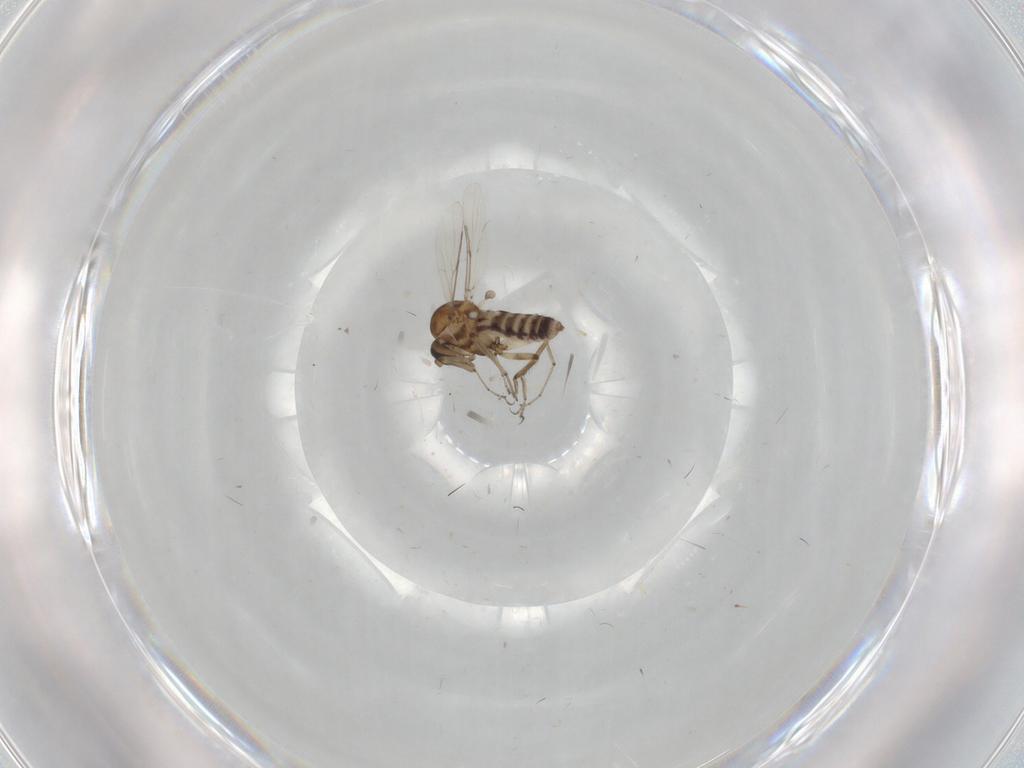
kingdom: Animalia
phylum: Arthropoda
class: Insecta
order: Diptera
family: Ceratopogonidae
